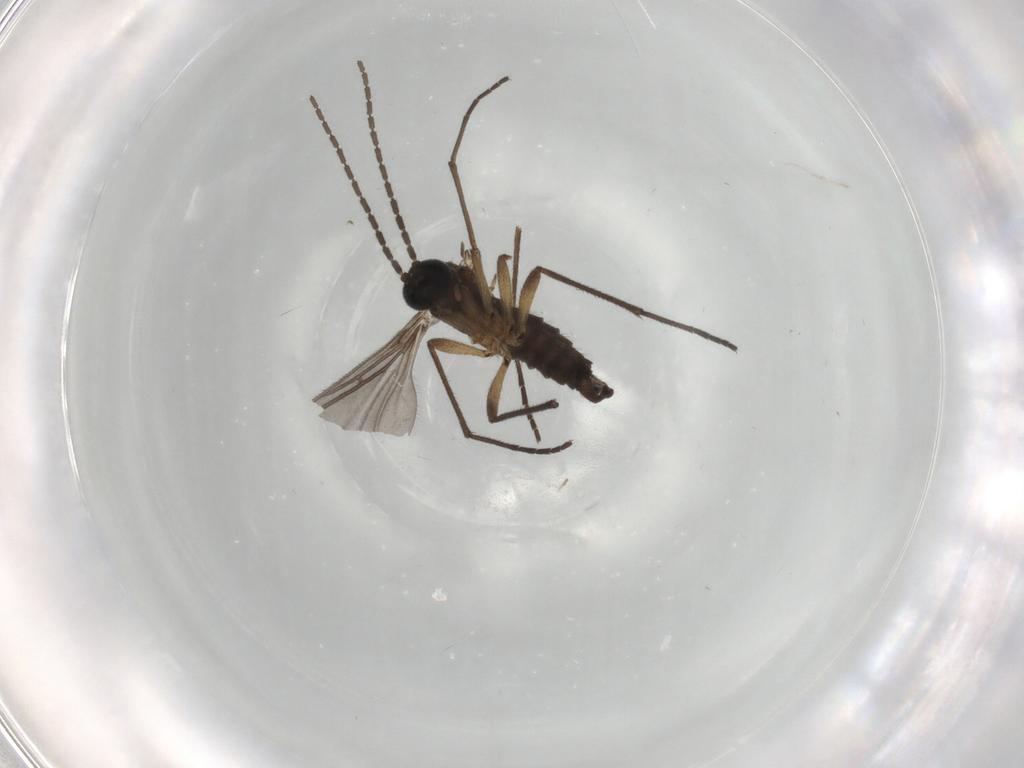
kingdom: Animalia
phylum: Arthropoda
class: Insecta
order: Diptera
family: Sciaridae
